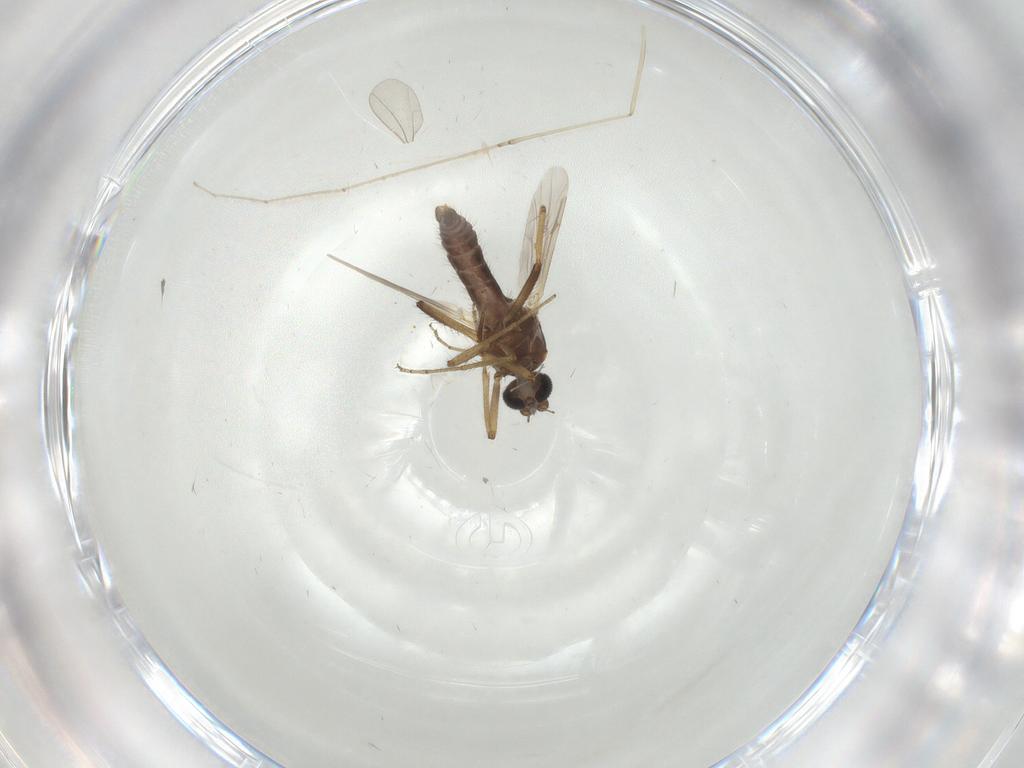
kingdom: Animalia
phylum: Arthropoda
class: Insecta
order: Diptera
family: Ceratopogonidae
